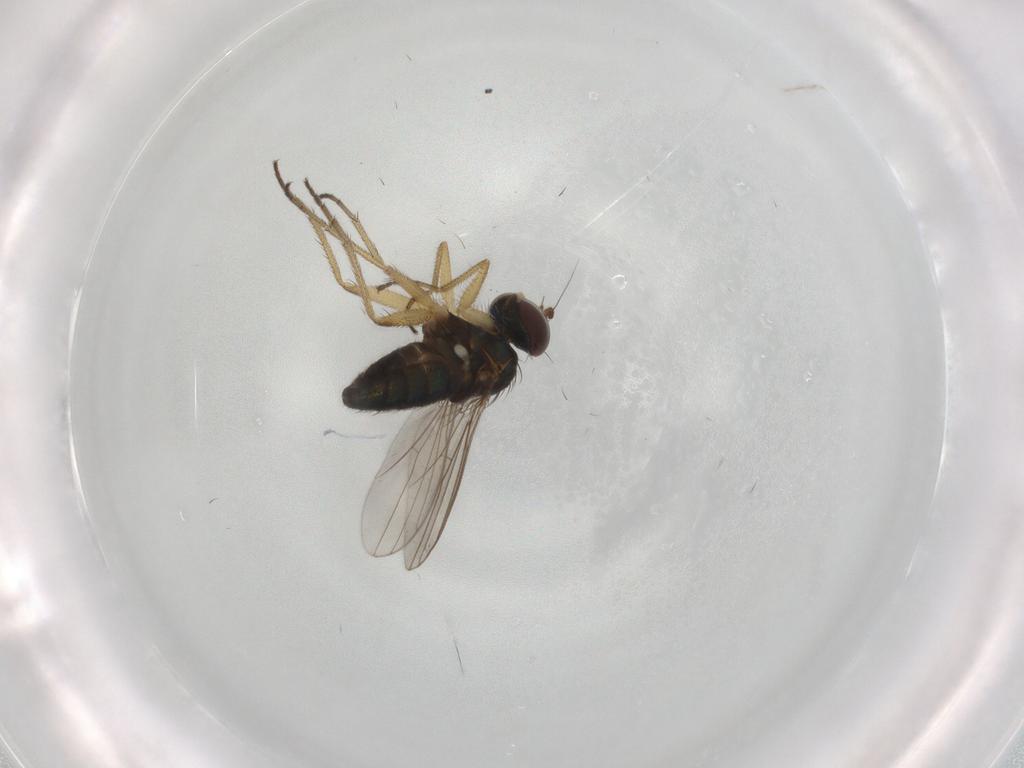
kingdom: Animalia
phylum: Arthropoda
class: Insecta
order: Diptera
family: Dolichopodidae
